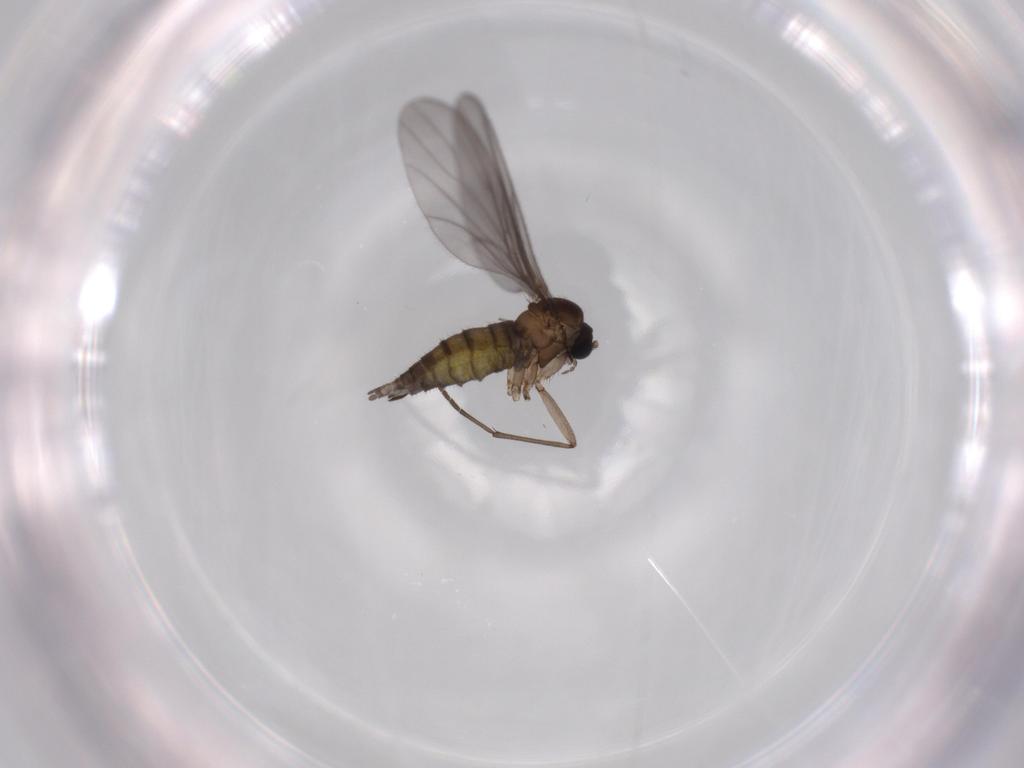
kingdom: Animalia
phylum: Arthropoda
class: Insecta
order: Diptera
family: Sciaridae
